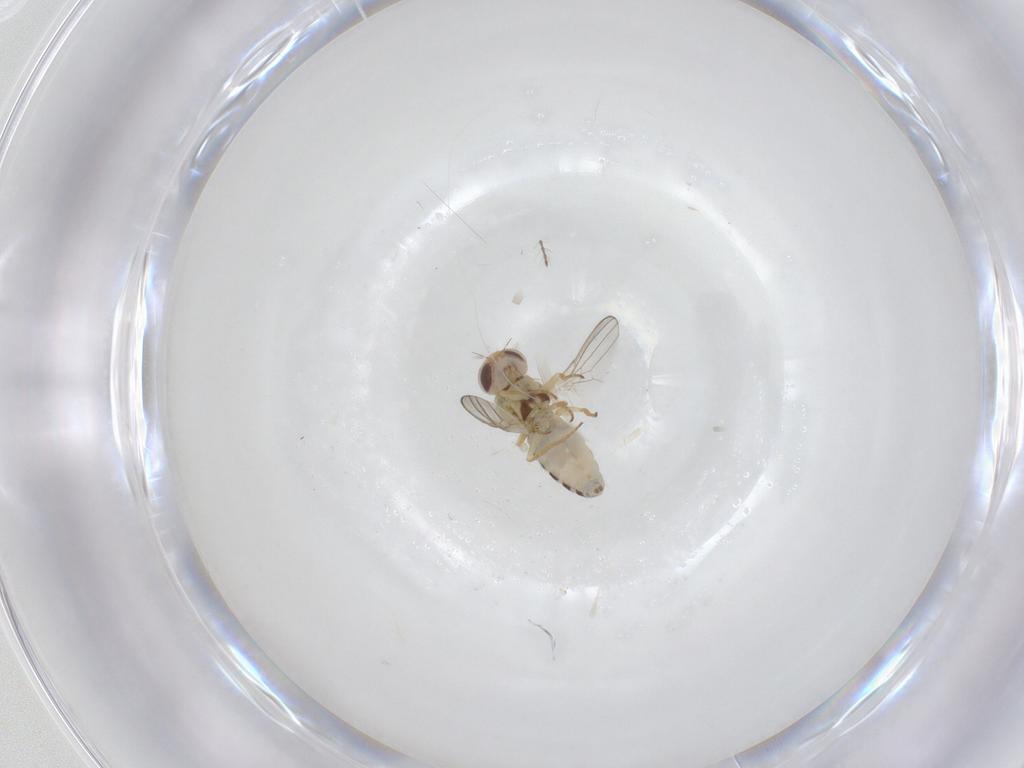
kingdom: Animalia
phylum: Arthropoda
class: Insecta
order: Diptera
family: Chyromyidae
